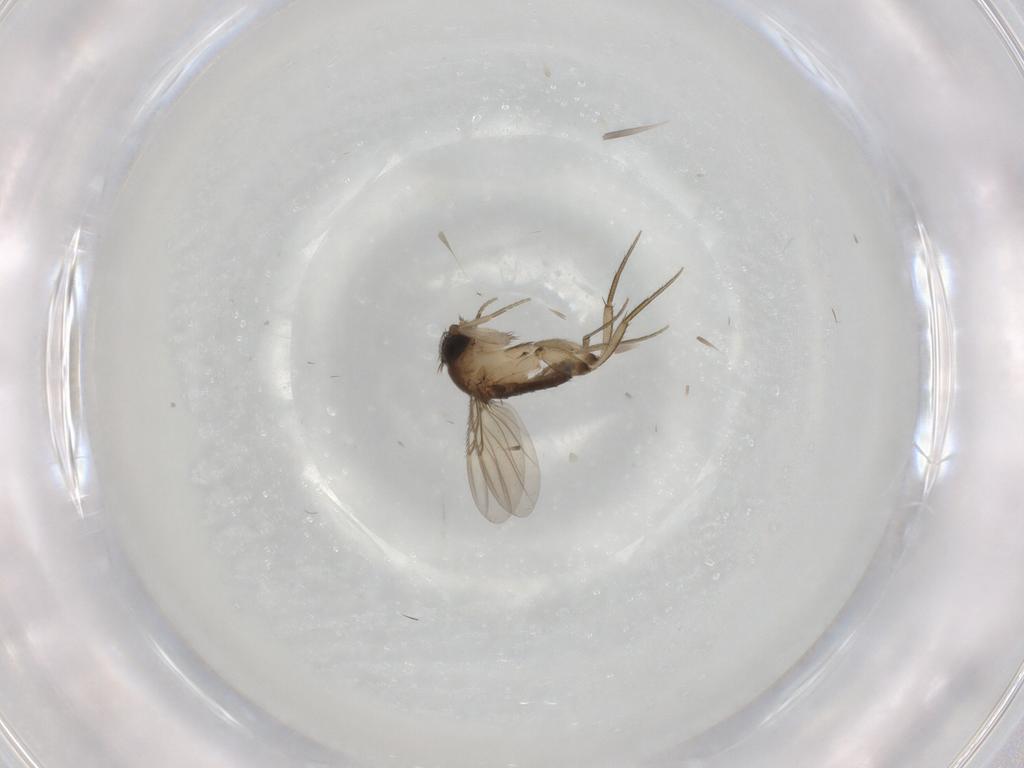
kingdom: Animalia
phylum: Arthropoda
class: Insecta
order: Diptera
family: Phoridae
